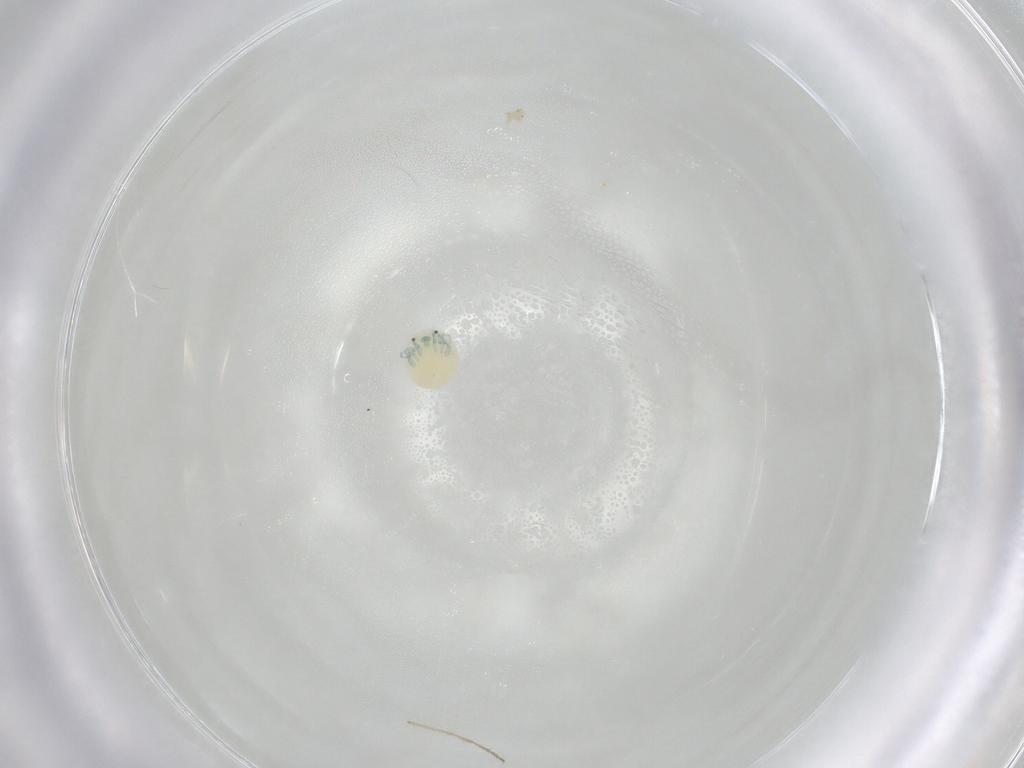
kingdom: Animalia
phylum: Arthropoda
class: Arachnida
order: Trombidiformes
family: Arrenuridae
